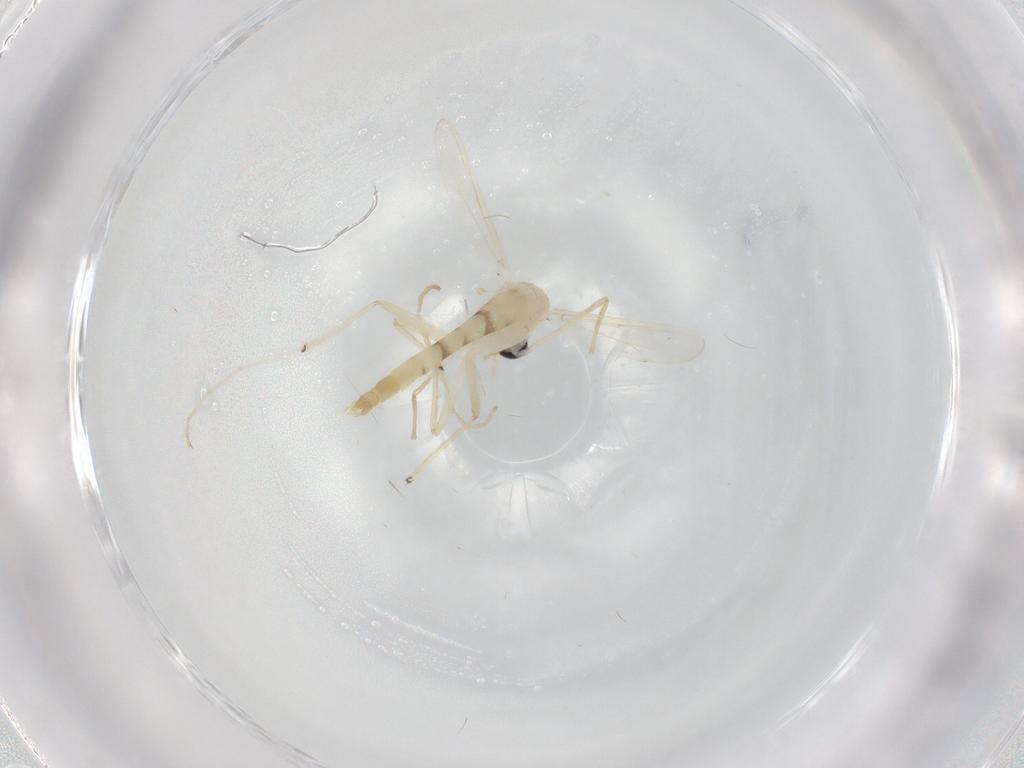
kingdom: Animalia
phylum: Arthropoda
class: Insecta
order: Diptera
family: Chironomidae
